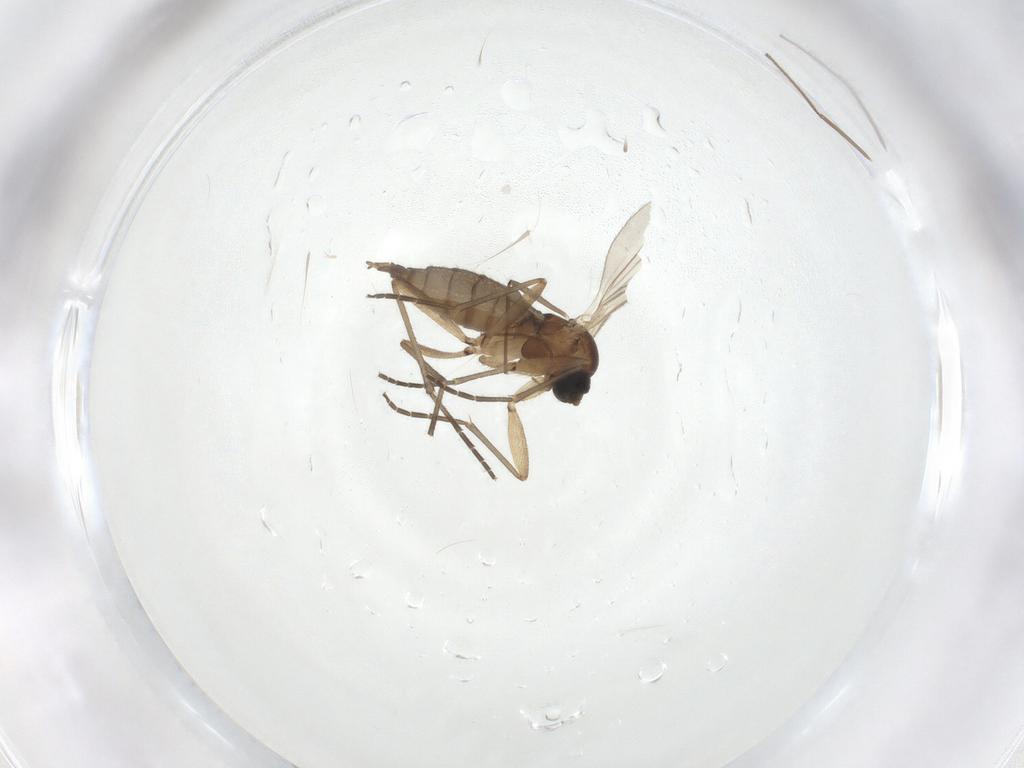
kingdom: Animalia
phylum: Arthropoda
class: Insecta
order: Diptera
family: Sciaridae
